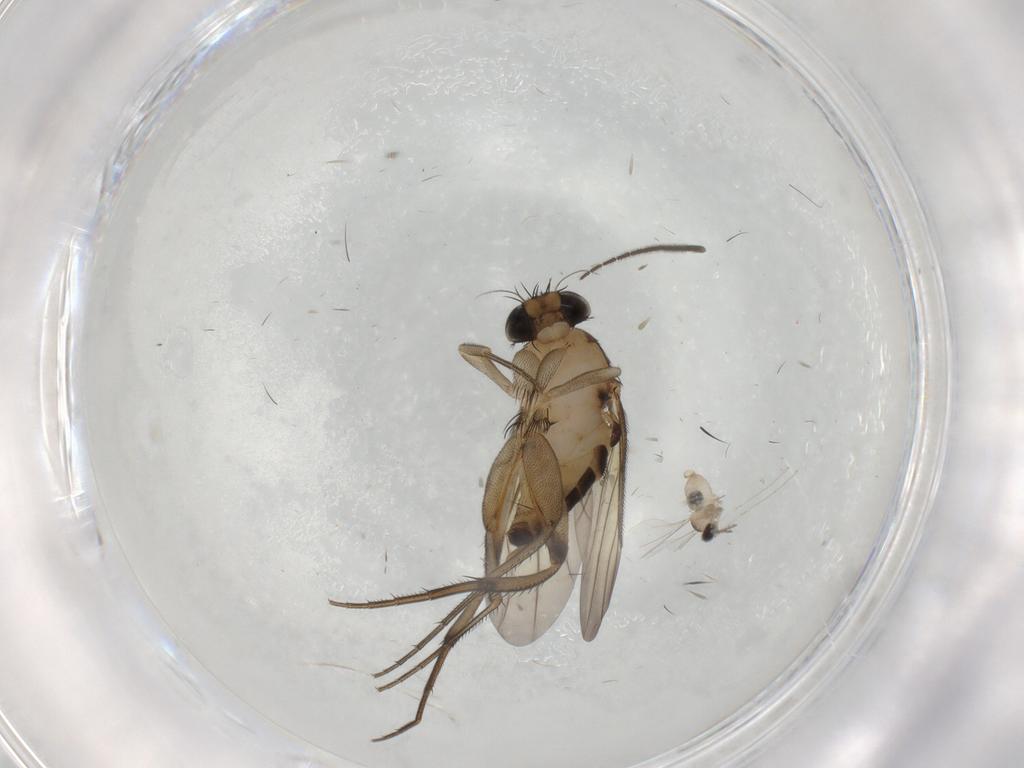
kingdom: Animalia
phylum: Arthropoda
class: Insecta
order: Diptera
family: Phoridae
